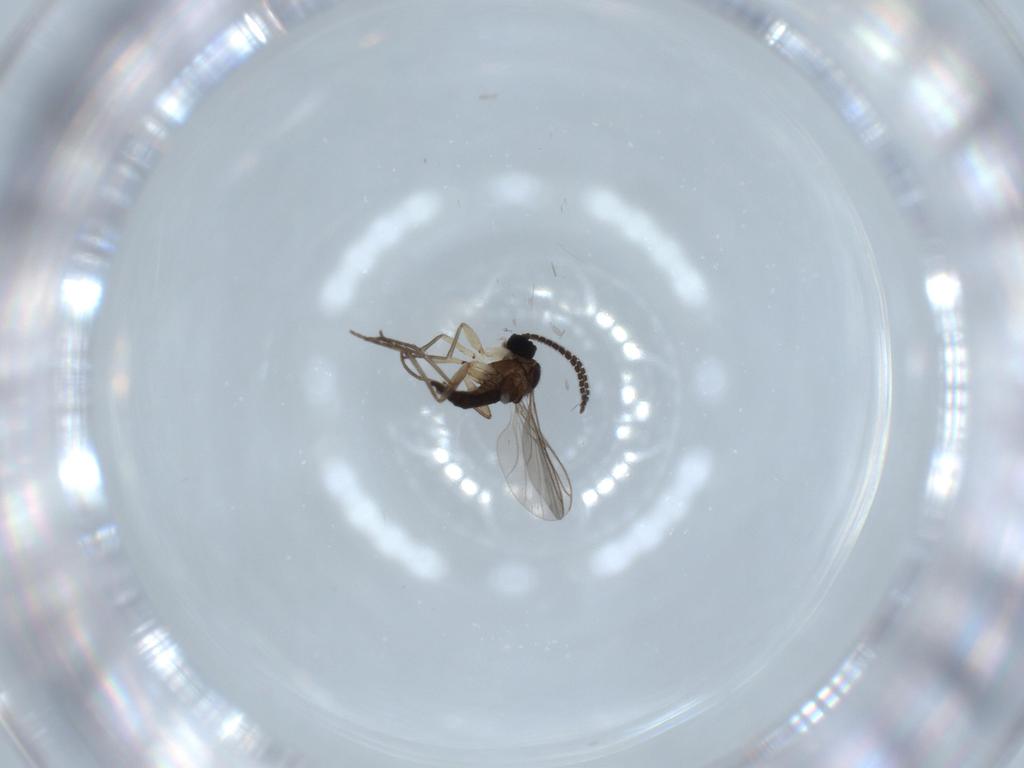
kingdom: Animalia
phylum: Arthropoda
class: Insecta
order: Diptera
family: Sciaridae
